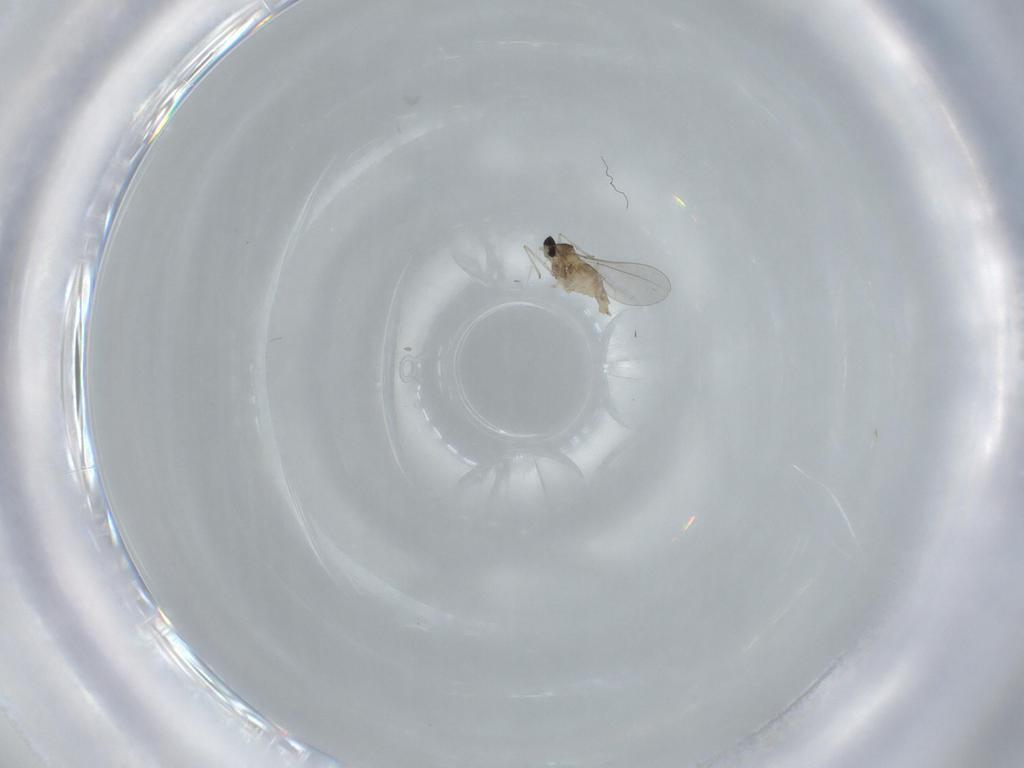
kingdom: Animalia
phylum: Arthropoda
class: Insecta
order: Diptera
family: Cecidomyiidae
